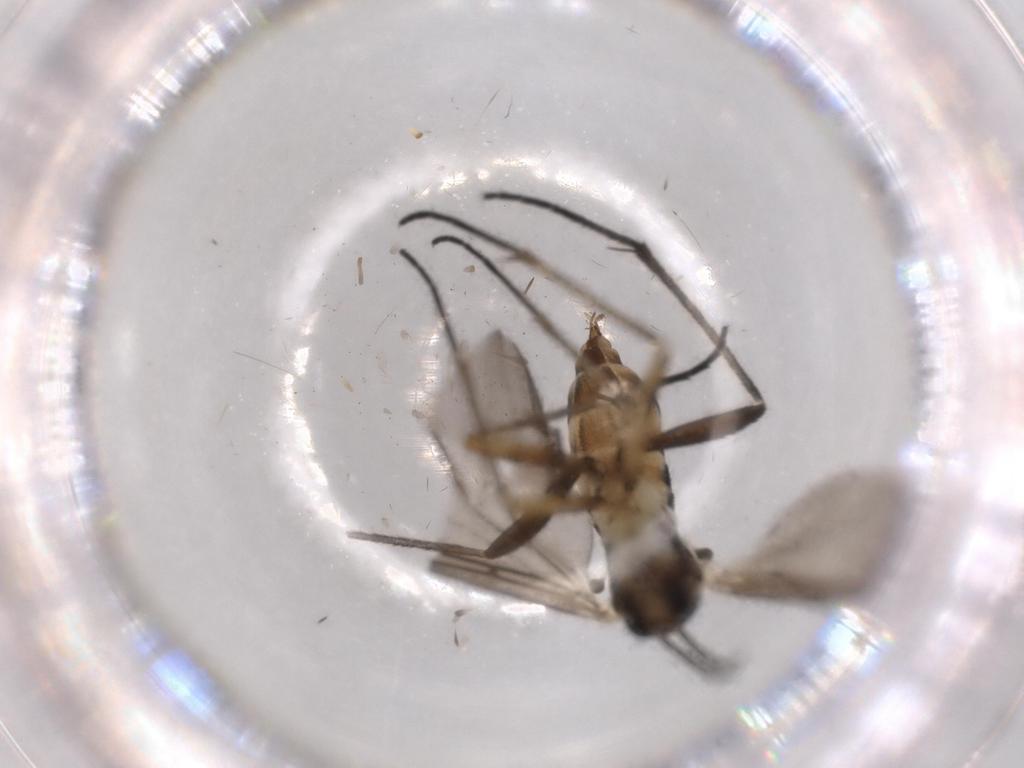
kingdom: Animalia
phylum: Arthropoda
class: Insecta
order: Diptera
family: Sciaridae
